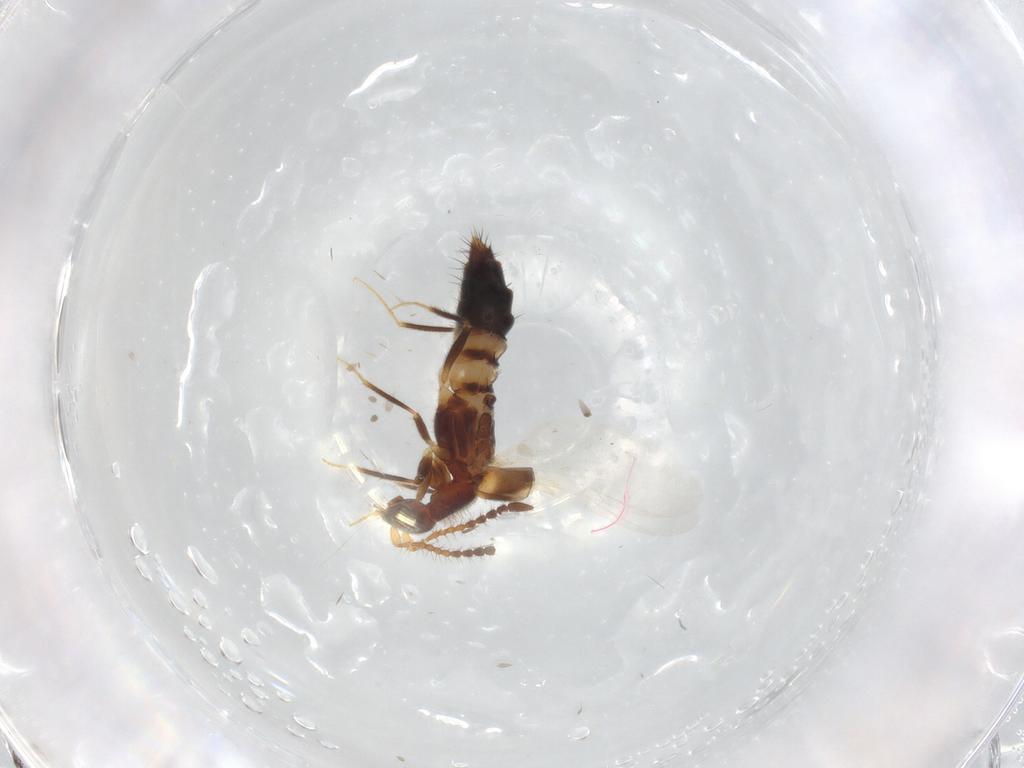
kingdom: Animalia
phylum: Arthropoda
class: Insecta
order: Coleoptera
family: Staphylinidae
